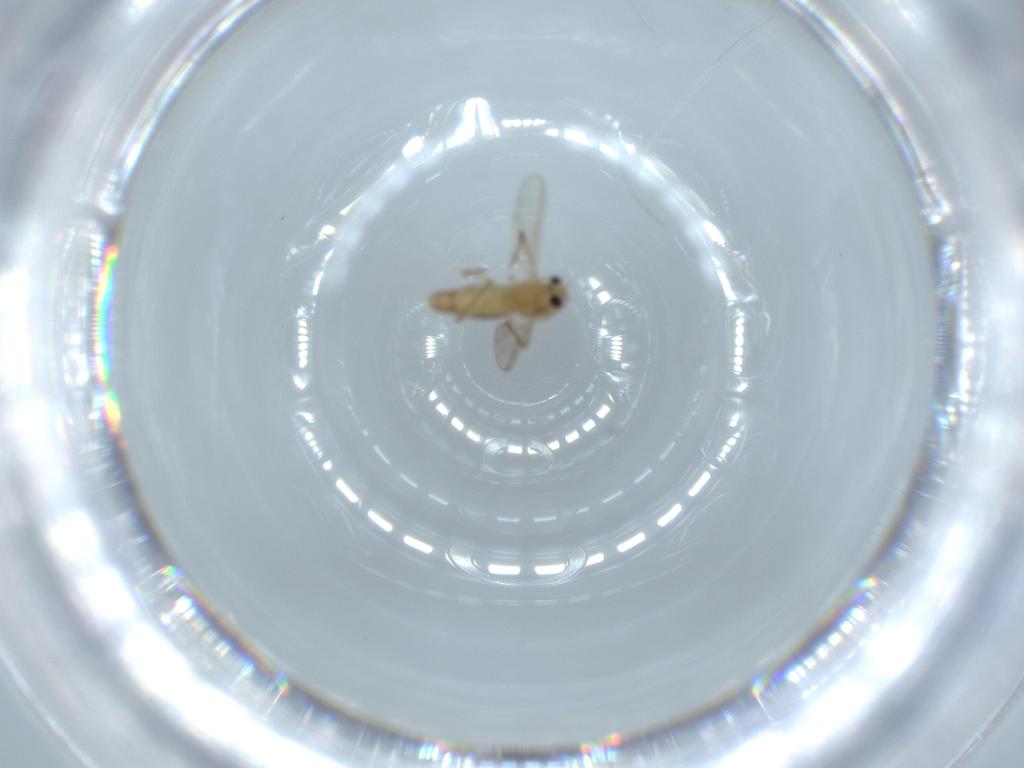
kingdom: Animalia
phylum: Arthropoda
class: Insecta
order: Diptera
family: Chironomidae
